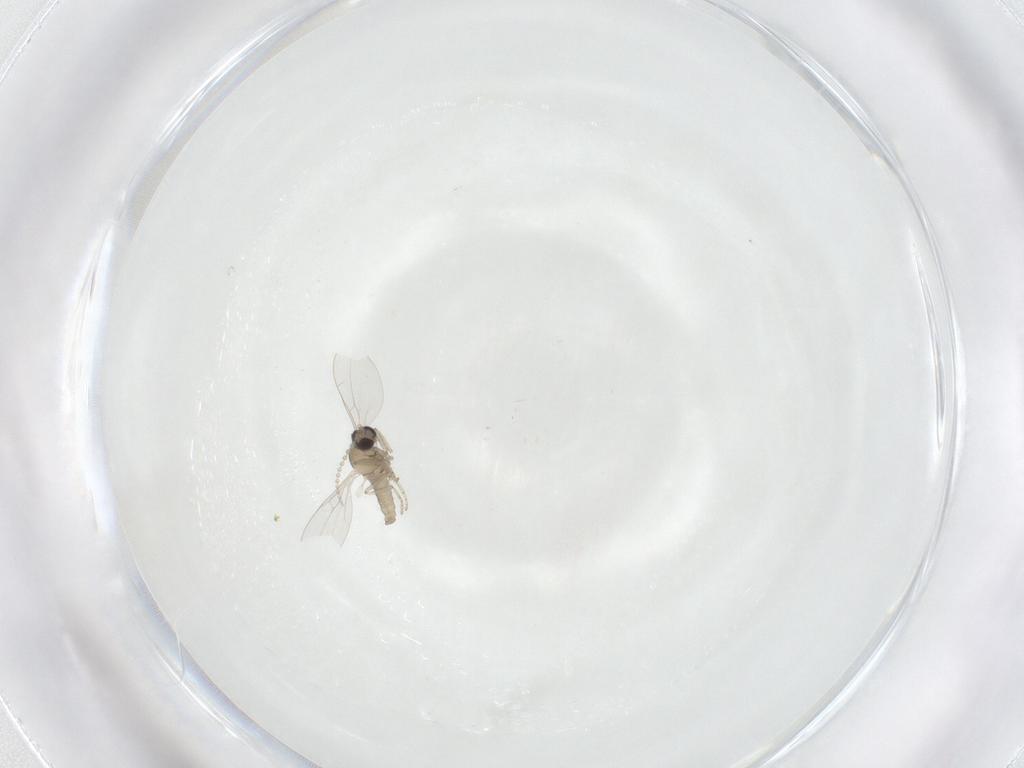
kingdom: Animalia
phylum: Arthropoda
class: Insecta
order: Diptera
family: Cecidomyiidae
